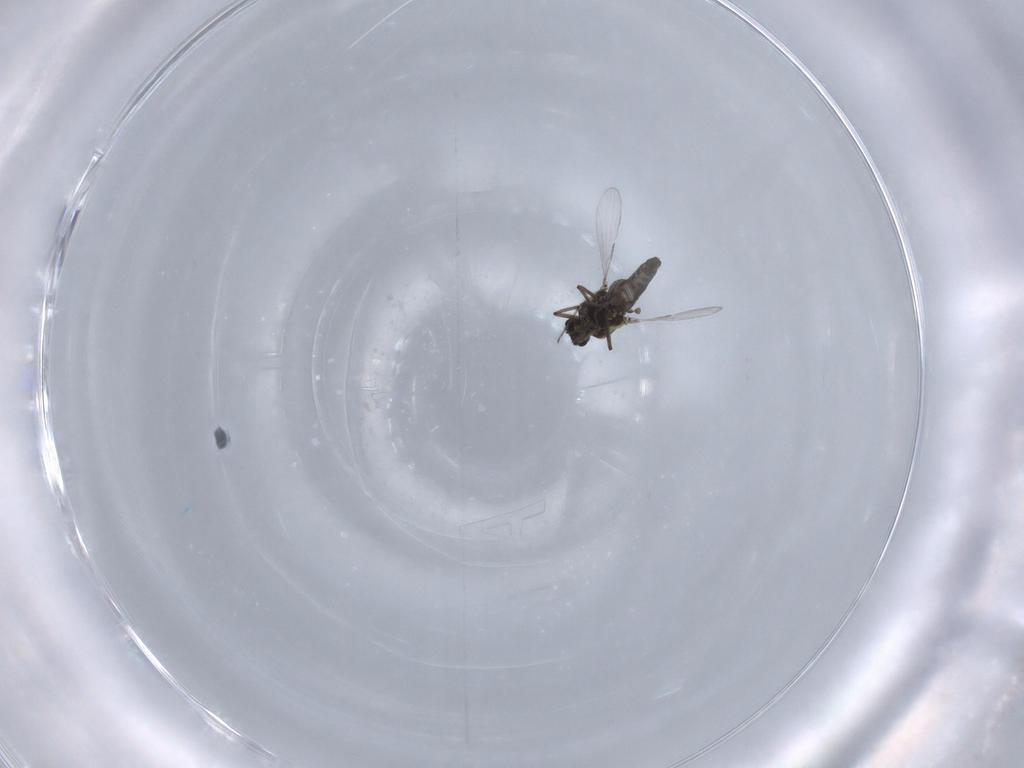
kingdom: Animalia
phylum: Arthropoda
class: Insecta
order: Diptera
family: Ceratopogonidae
